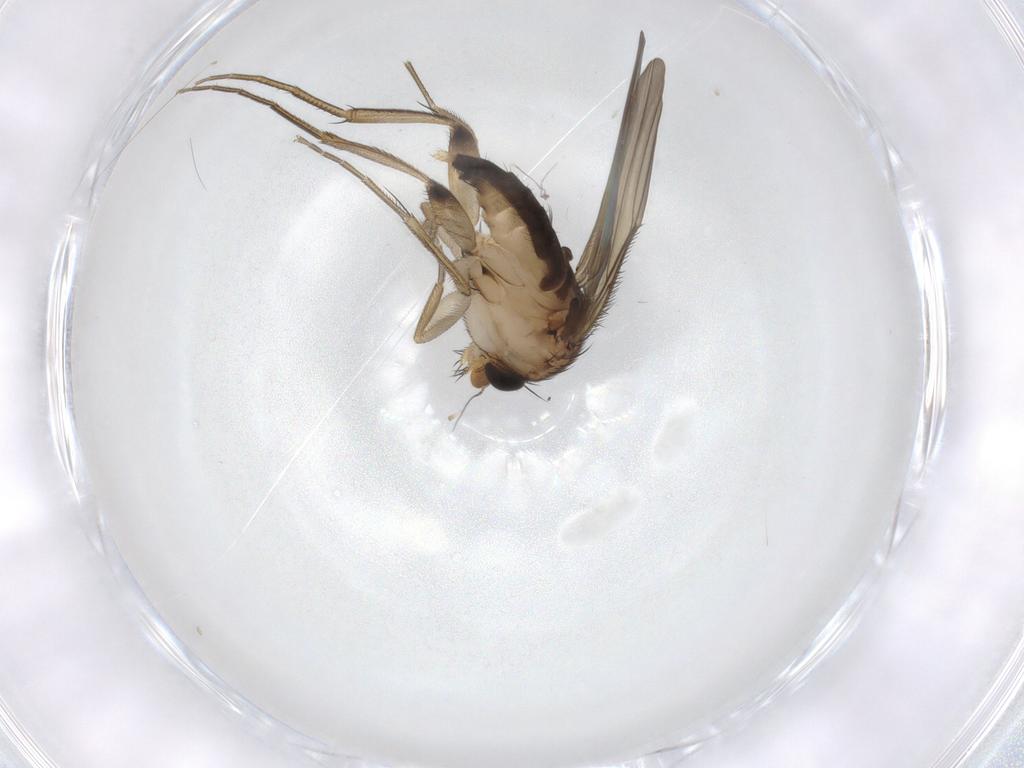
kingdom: Animalia
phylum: Arthropoda
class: Insecta
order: Diptera
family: Phoridae
